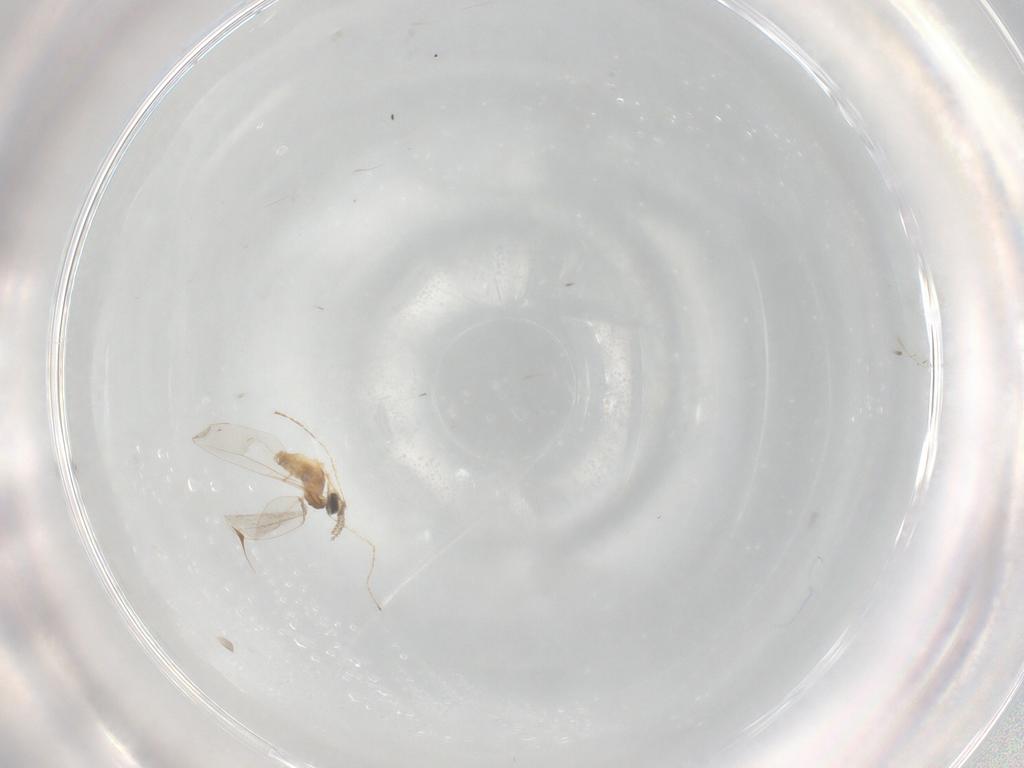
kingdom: Animalia
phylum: Arthropoda
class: Insecta
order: Diptera
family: Cecidomyiidae
